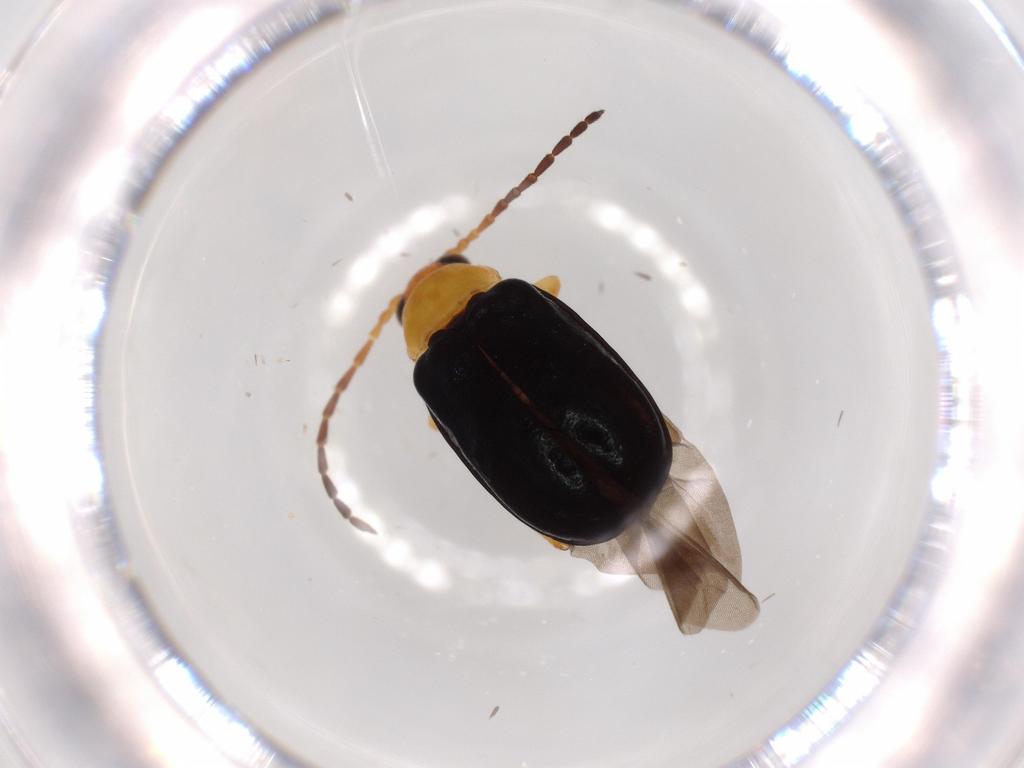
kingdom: Animalia
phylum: Arthropoda
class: Insecta
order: Coleoptera
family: Chrysomelidae
